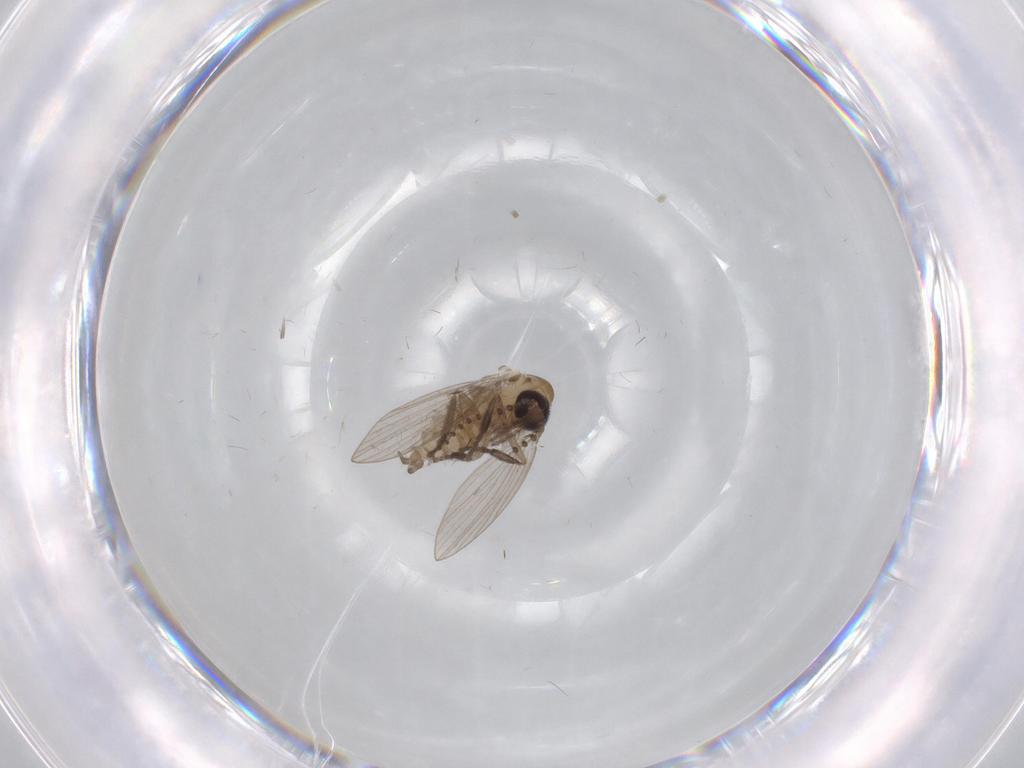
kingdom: Animalia
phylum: Arthropoda
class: Insecta
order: Diptera
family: Psychodidae
